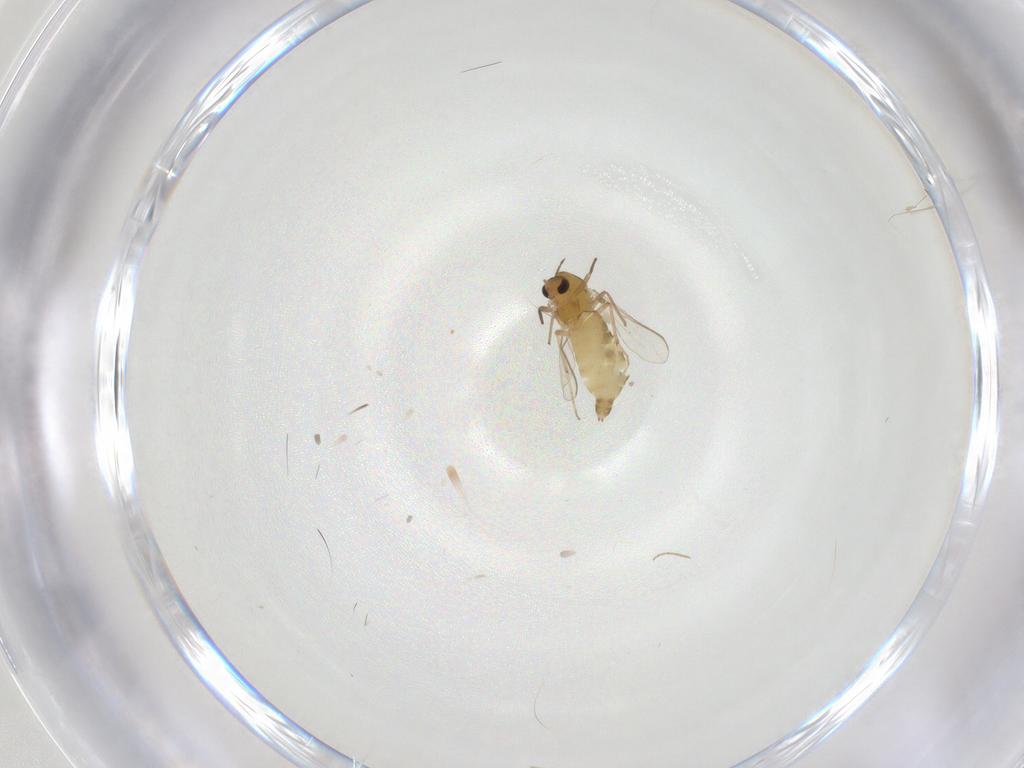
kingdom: Animalia
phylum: Arthropoda
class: Insecta
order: Diptera
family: Chironomidae
